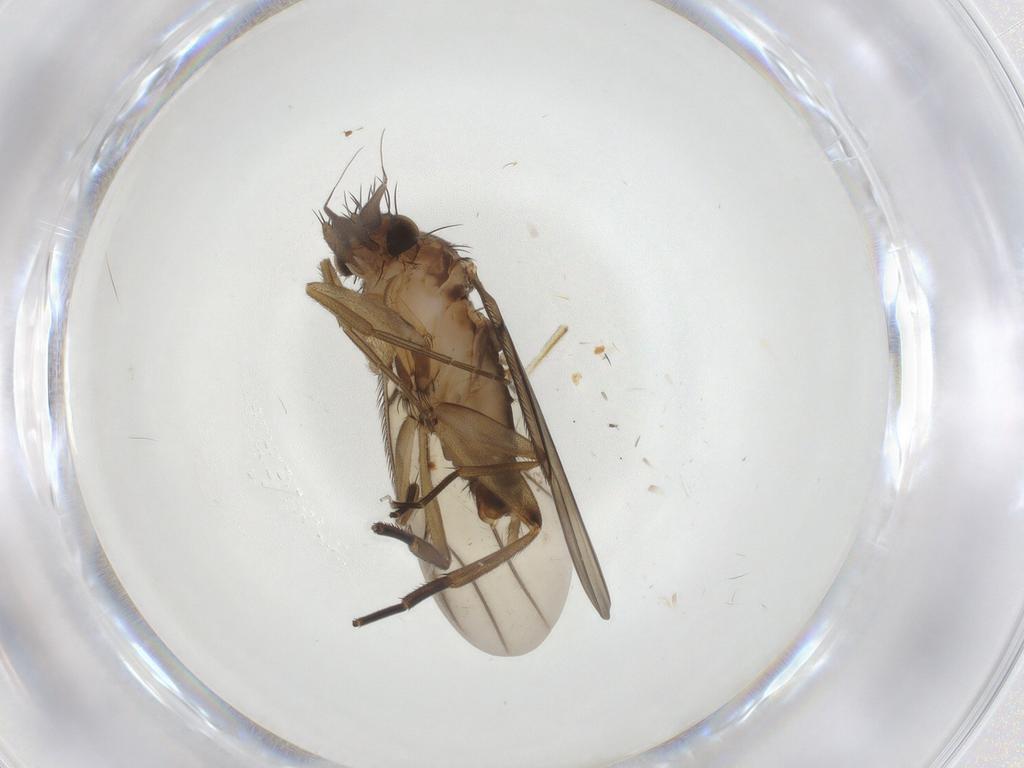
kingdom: Animalia
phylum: Arthropoda
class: Insecta
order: Diptera
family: Phoridae
